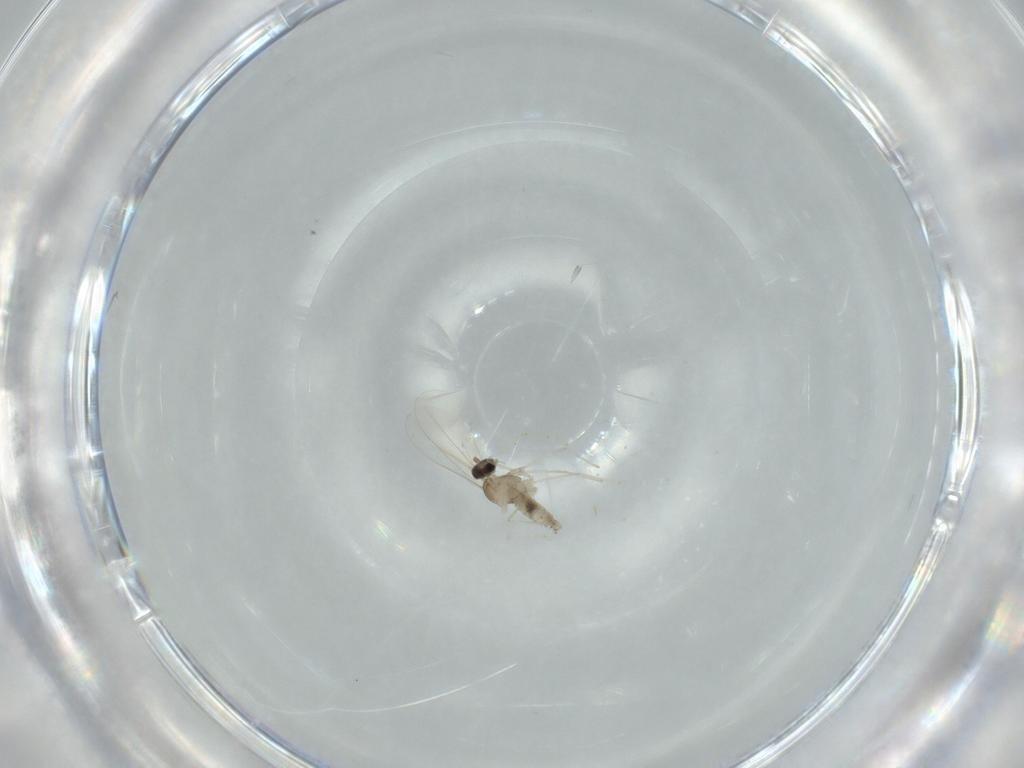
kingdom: Animalia
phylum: Arthropoda
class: Insecta
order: Diptera
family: Cecidomyiidae
